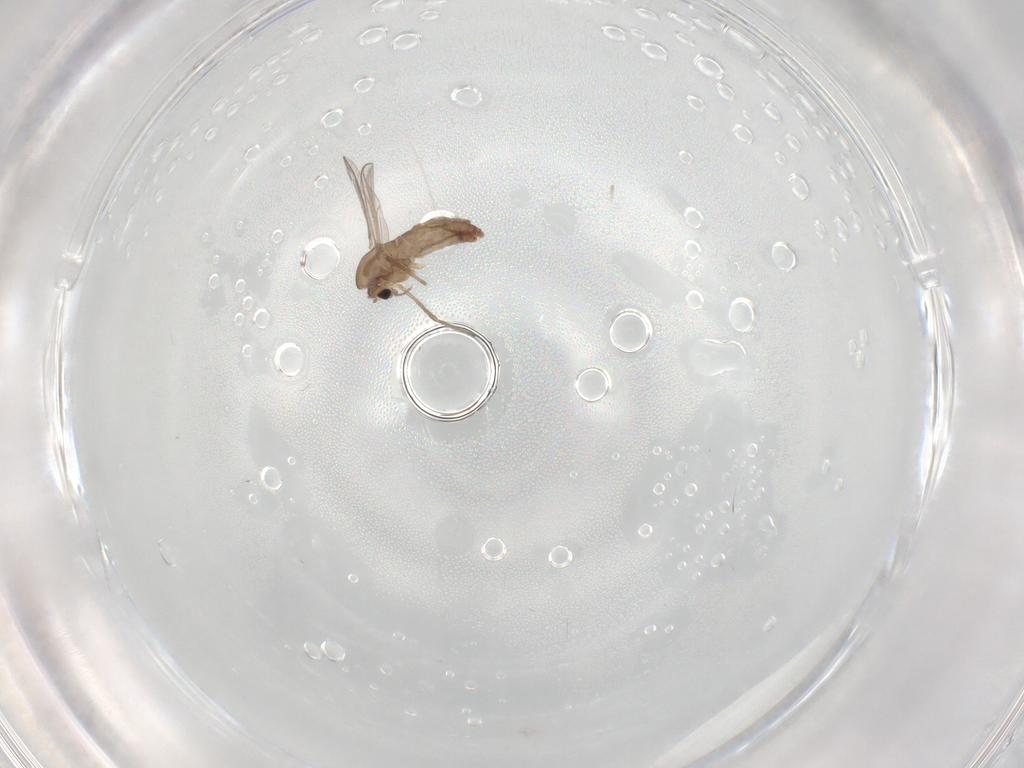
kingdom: Animalia
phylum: Arthropoda
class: Insecta
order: Diptera
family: Chironomidae
